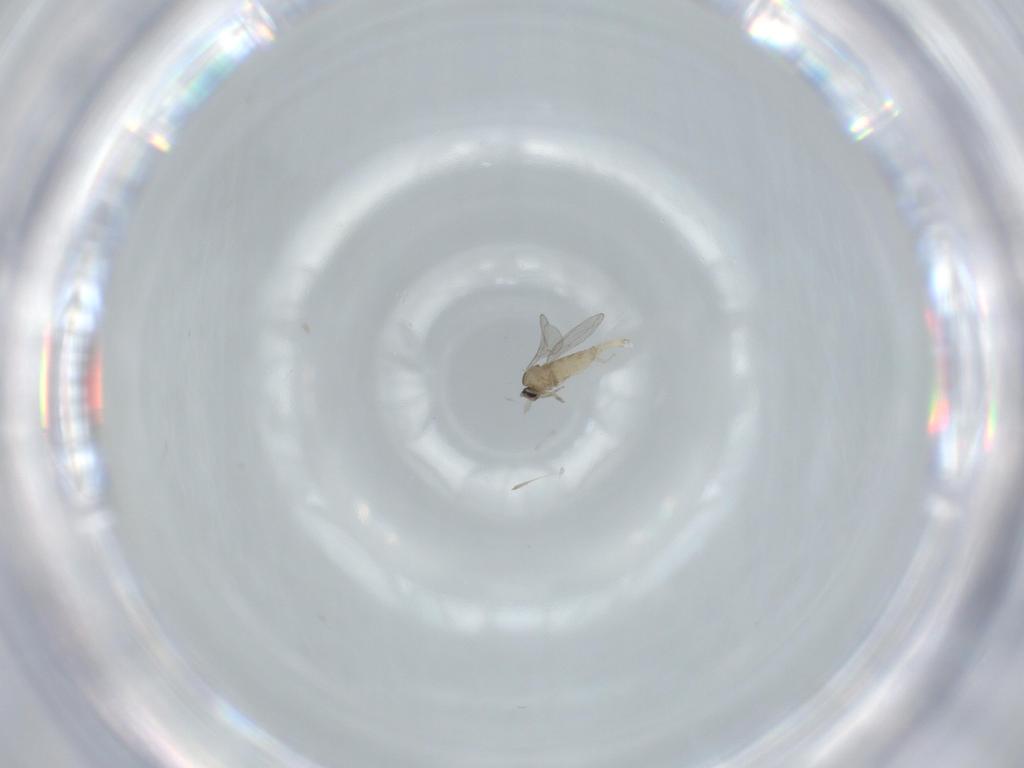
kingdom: Animalia
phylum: Arthropoda
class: Insecta
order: Diptera
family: Cecidomyiidae
